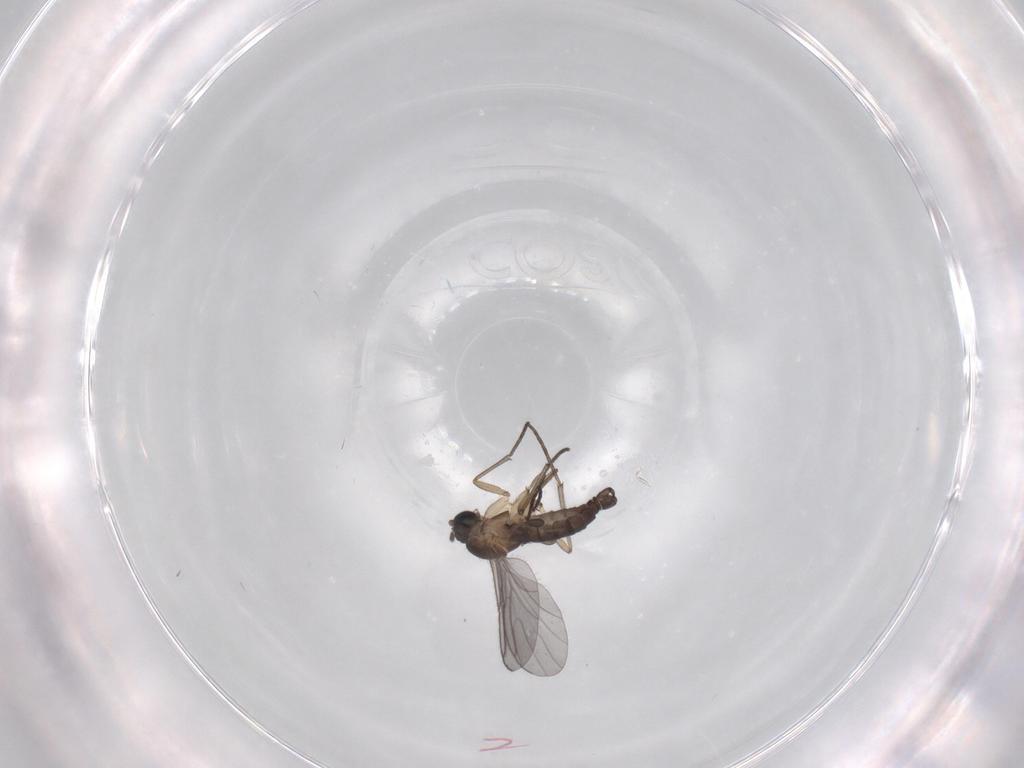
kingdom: Animalia
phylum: Arthropoda
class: Insecta
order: Diptera
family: Sciaridae
